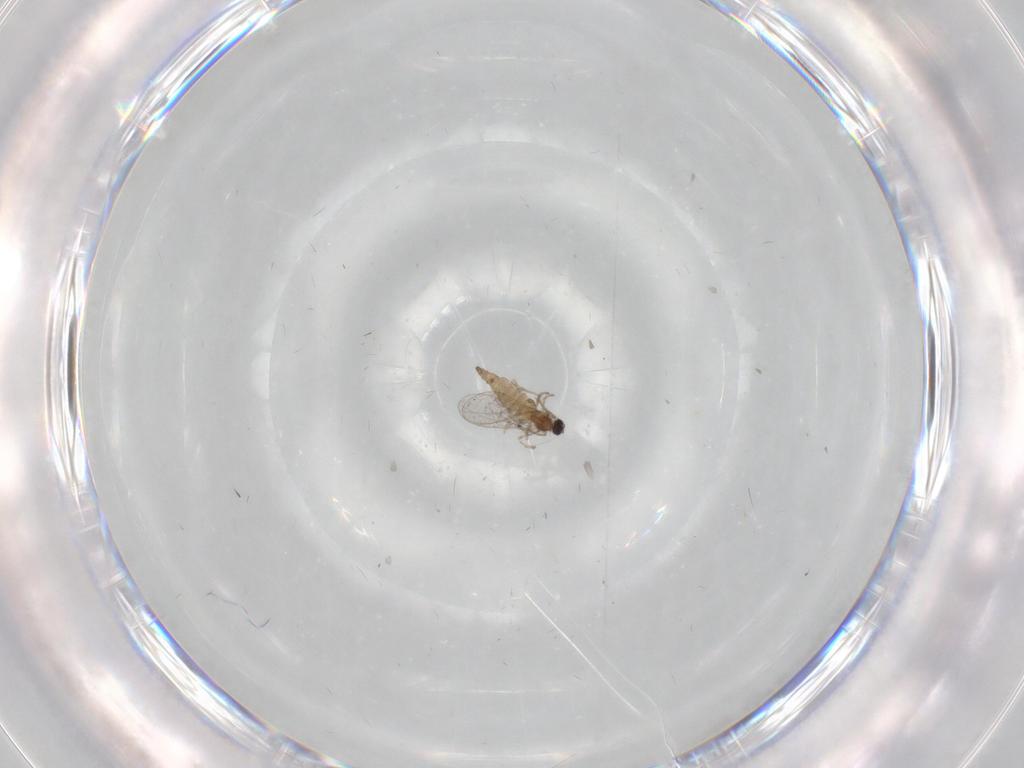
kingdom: Animalia
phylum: Arthropoda
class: Insecta
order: Diptera
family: Cecidomyiidae
